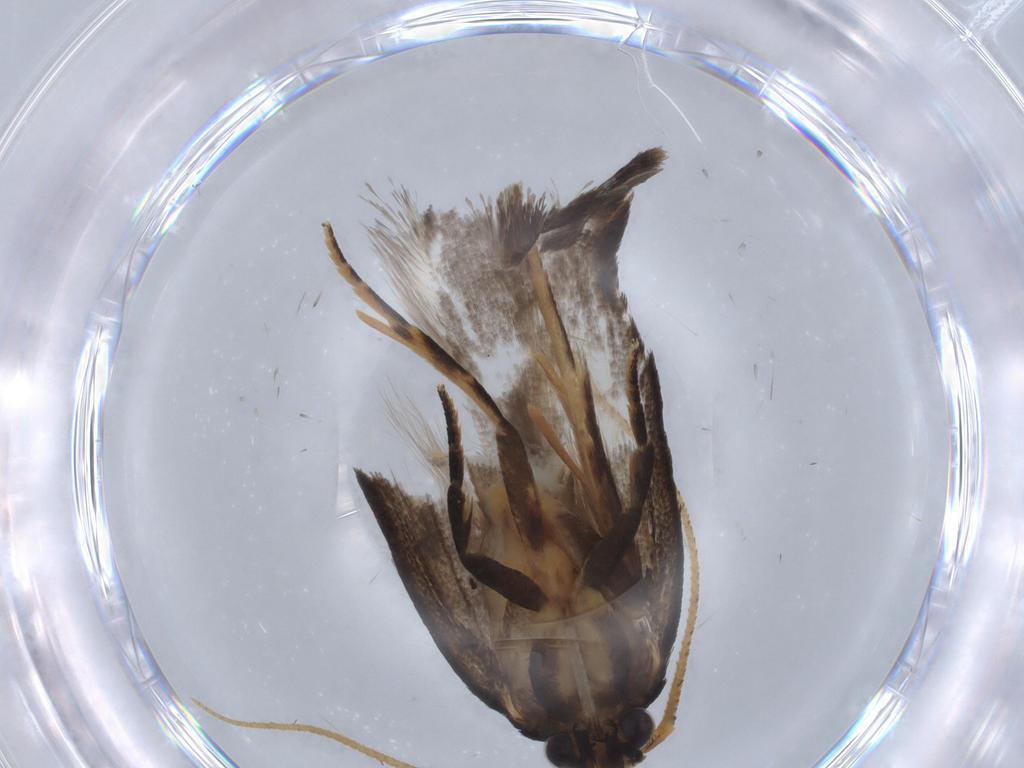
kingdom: Animalia
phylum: Arthropoda
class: Insecta
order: Lepidoptera
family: Oecophoridae
